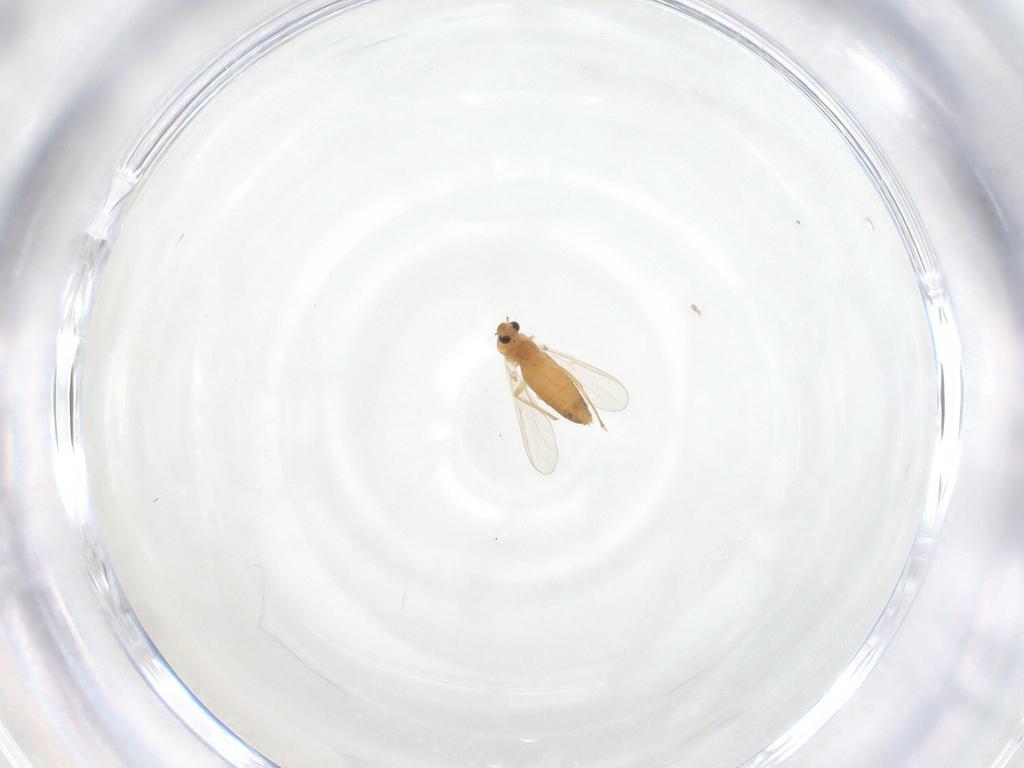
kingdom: Animalia
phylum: Arthropoda
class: Insecta
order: Diptera
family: Chironomidae
